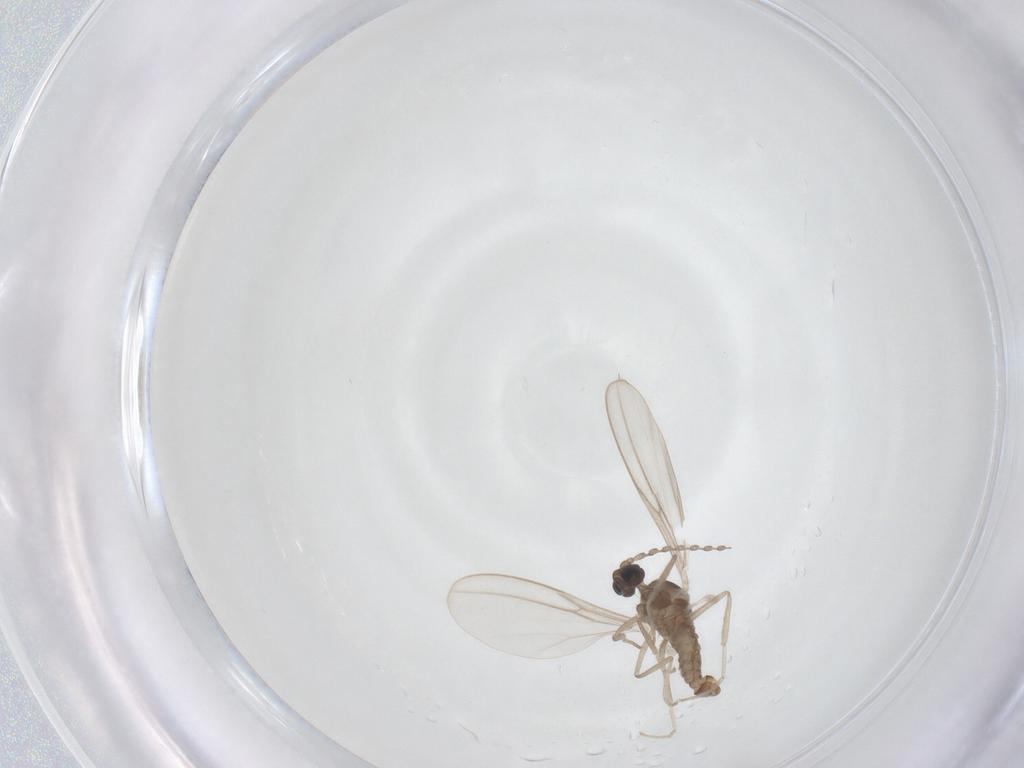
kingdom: Animalia
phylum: Arthropoda
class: Insecta
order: Diptera
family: Cecidomyiidae
